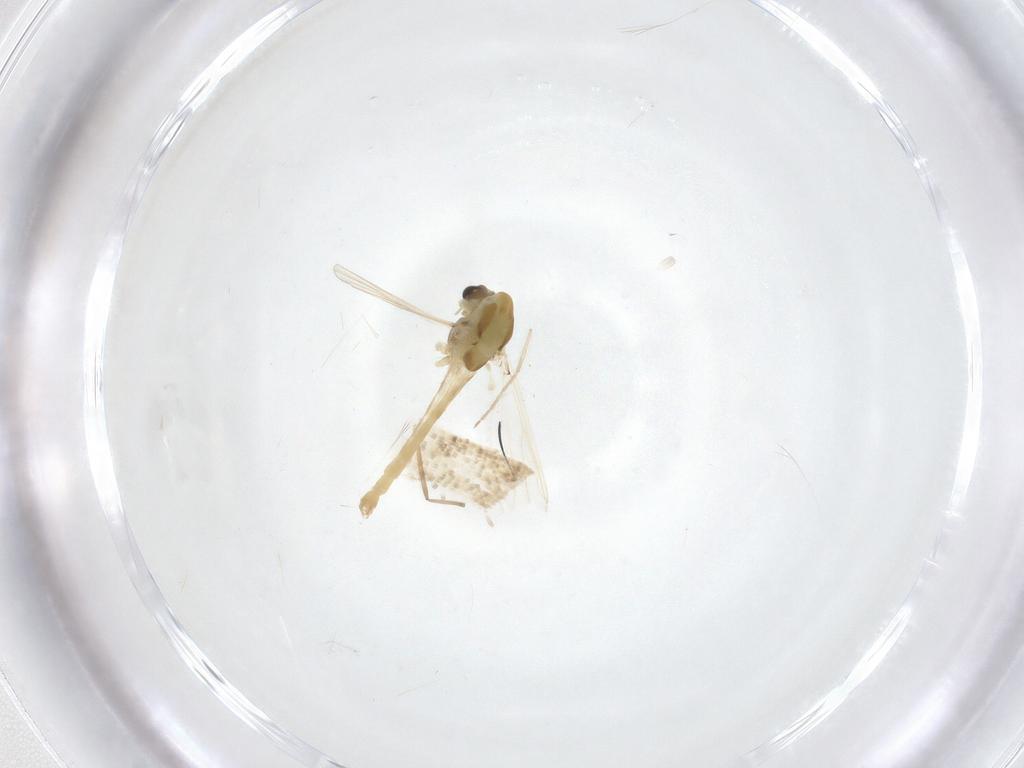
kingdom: Animalia
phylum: Arthropoda
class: Insecta
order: Diptera
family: Chironomidae
